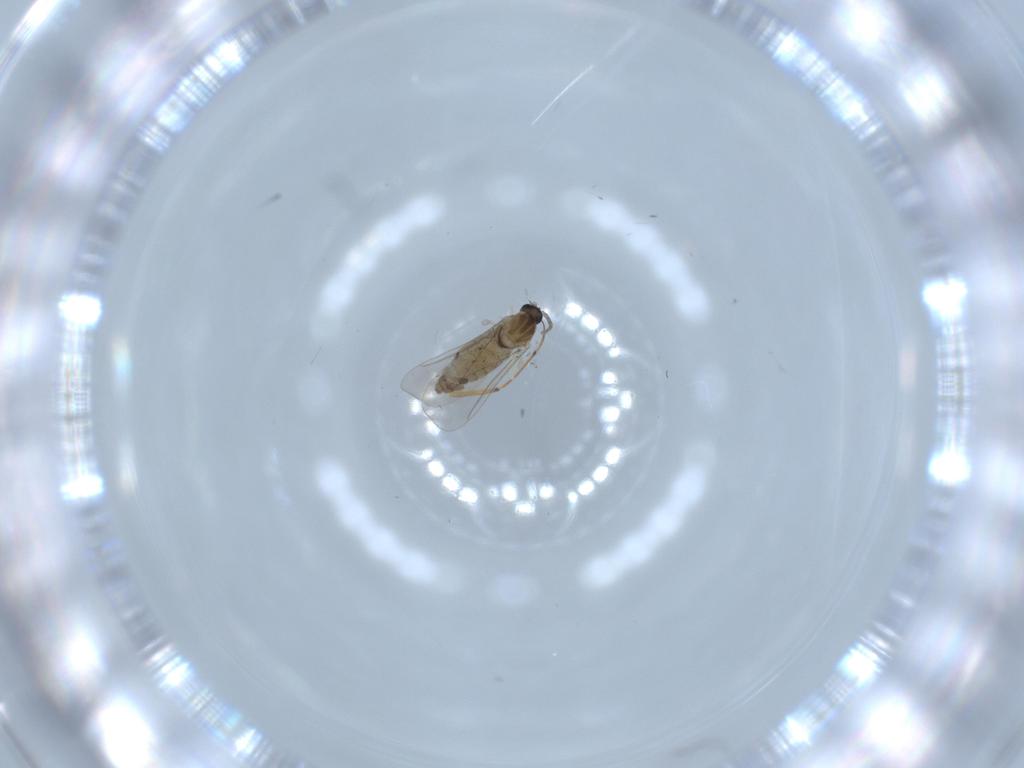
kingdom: Animalia
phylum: Arthropoda
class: Insecta
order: Diptera
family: Cecidomyiidae
